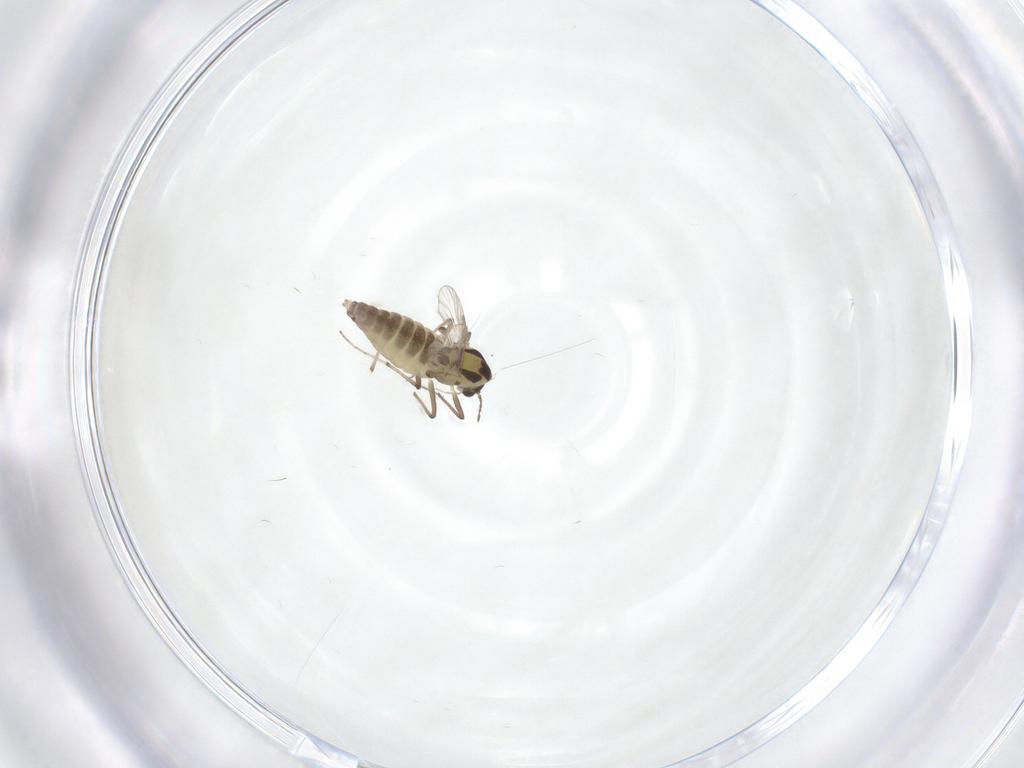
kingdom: Animalia
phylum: Arthropoda
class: Insecta
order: Diptera
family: Chironomidae
